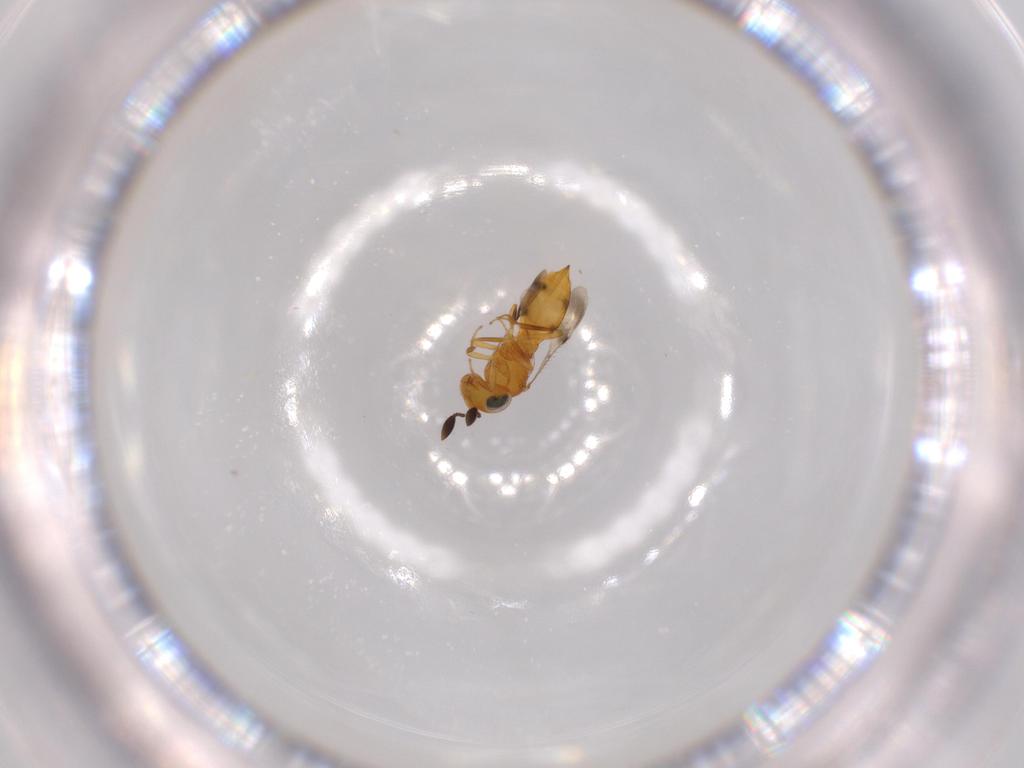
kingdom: Animalia
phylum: Arthropoda
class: Insecta
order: Hymenoptera
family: Scelionidae
